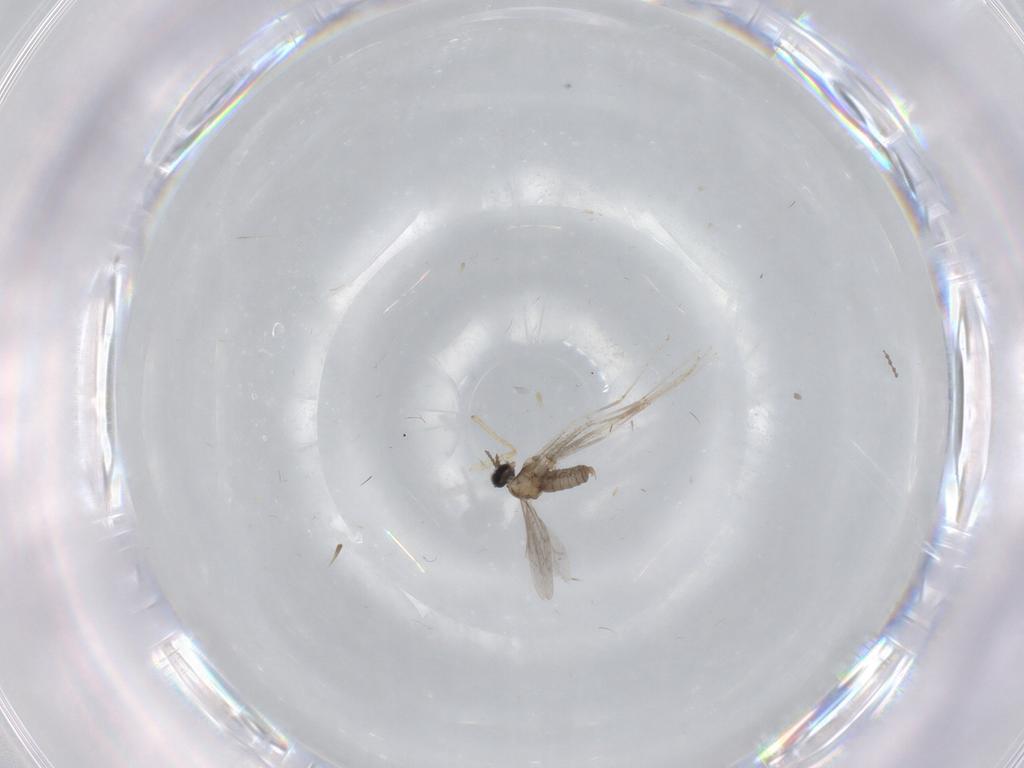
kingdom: Animalia
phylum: Arthropoda
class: Insecta
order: Diptera
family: Cecidomyiidae
